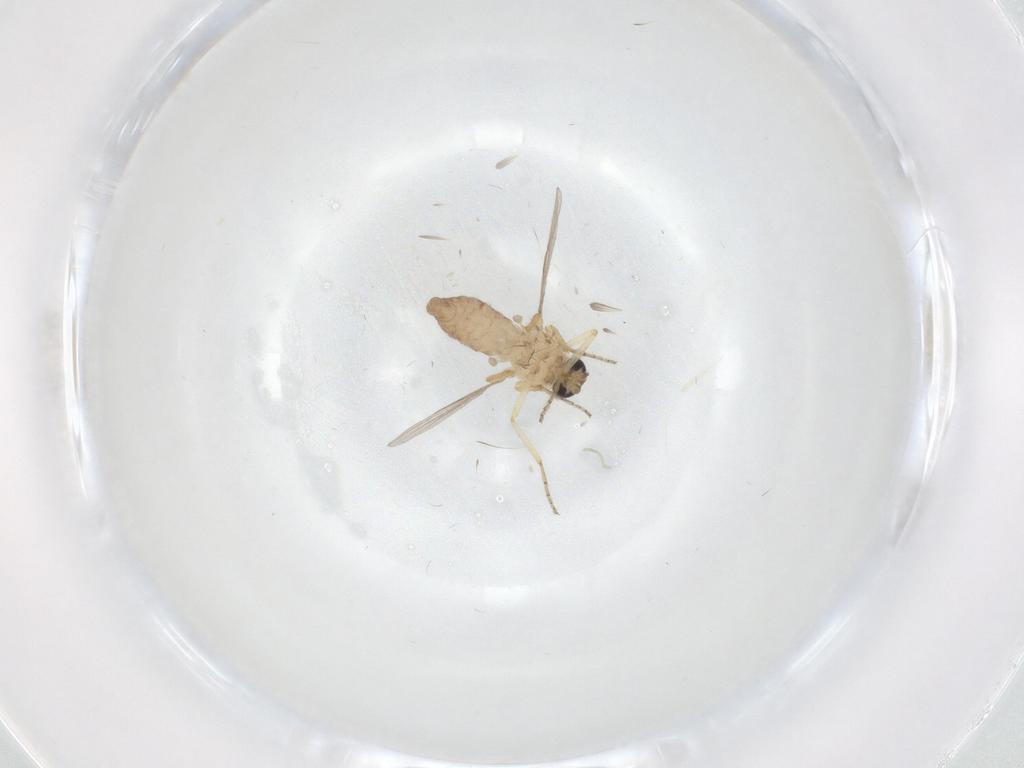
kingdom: Animalia
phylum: Arthropoda
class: Insecta
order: Diptera
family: Ceratopogonidae
